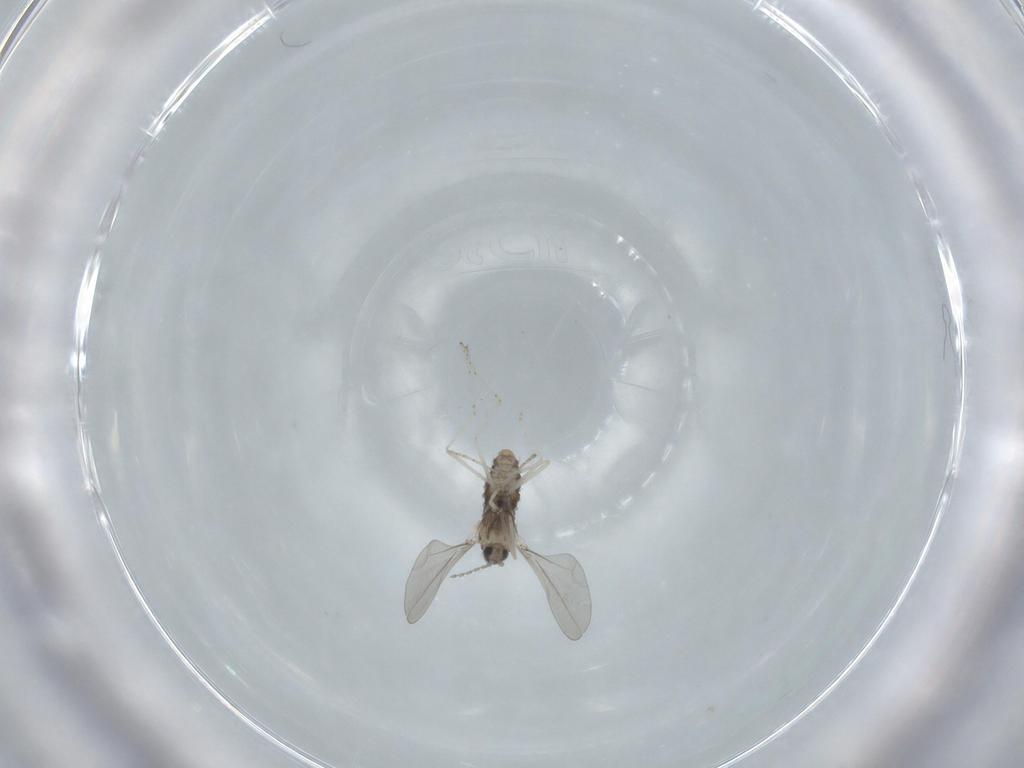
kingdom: Animalia
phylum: Arthropoda
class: Insecta
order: Diptera
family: Cecidomyiidae
